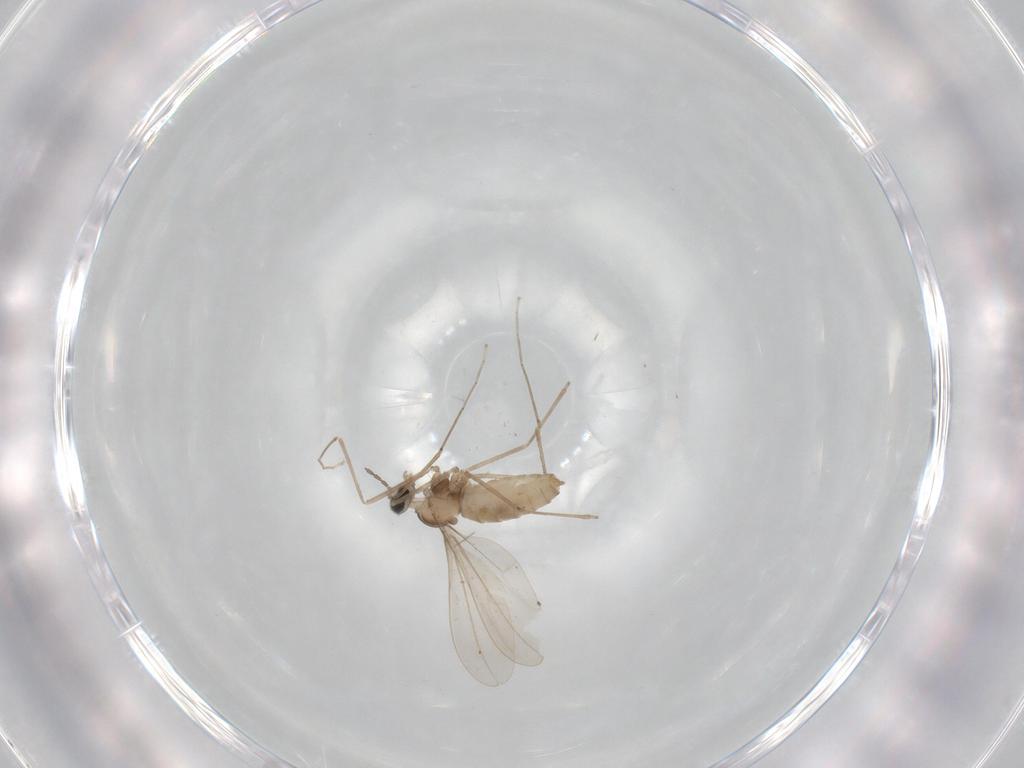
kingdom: Animalia
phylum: Arthropoda
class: Insecta
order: Diptera
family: Cecidomyiidae
